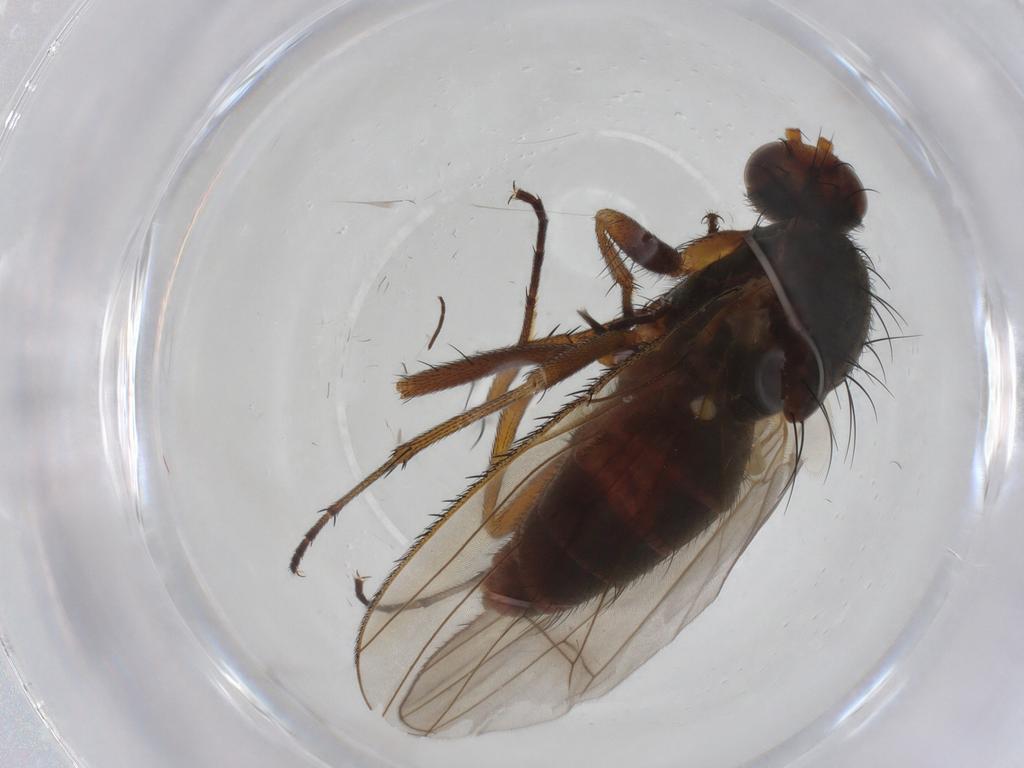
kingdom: Animalia
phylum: Arthropoda
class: Insecta
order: Diptera
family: Heleomyzidae
